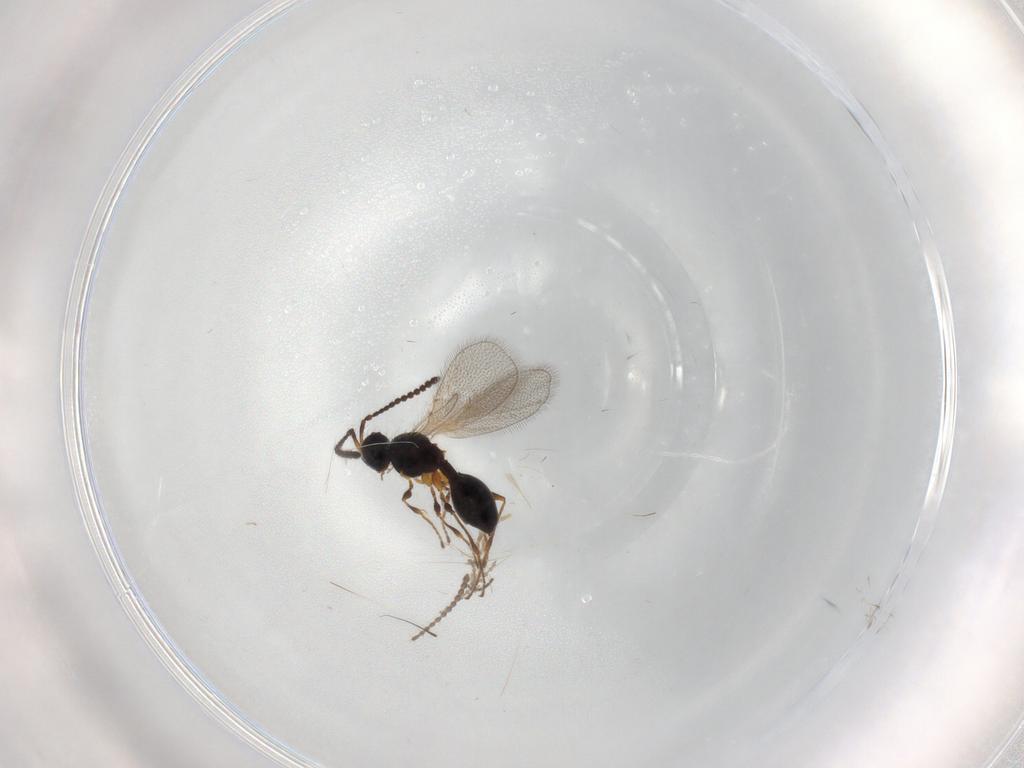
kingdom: Animalia
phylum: Arthropoda
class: Insecta
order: Hymenoptera
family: Diapriidae
